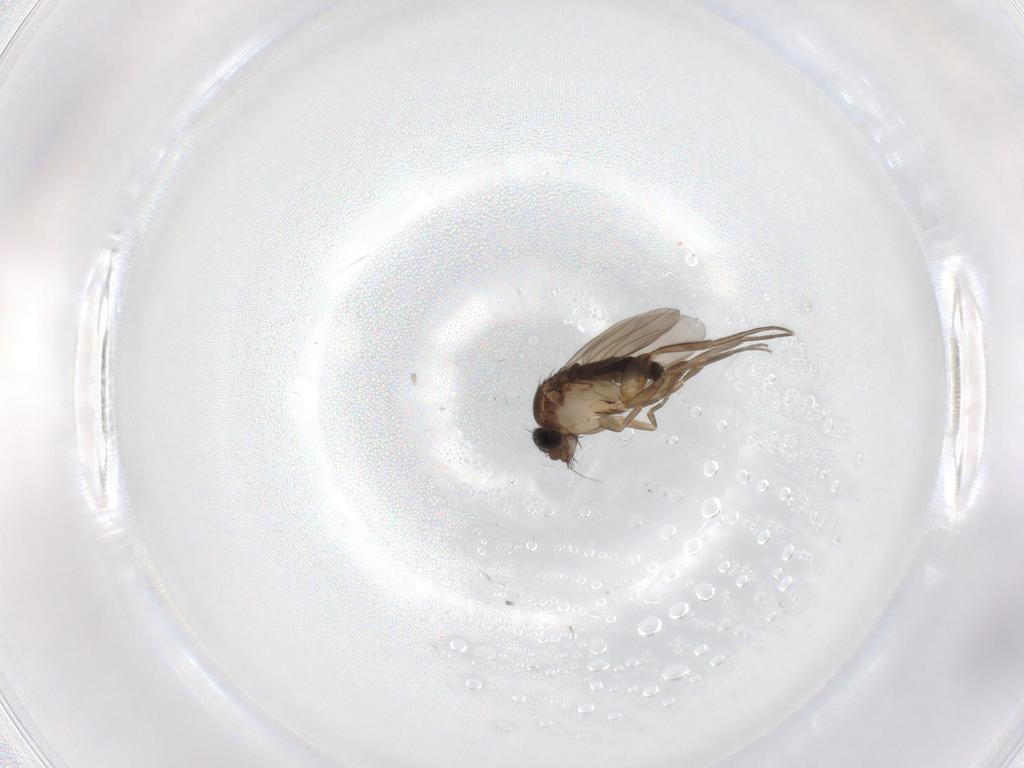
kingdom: Animalia
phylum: Arthropoda
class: Insecta
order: Diptera
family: Phoridae
